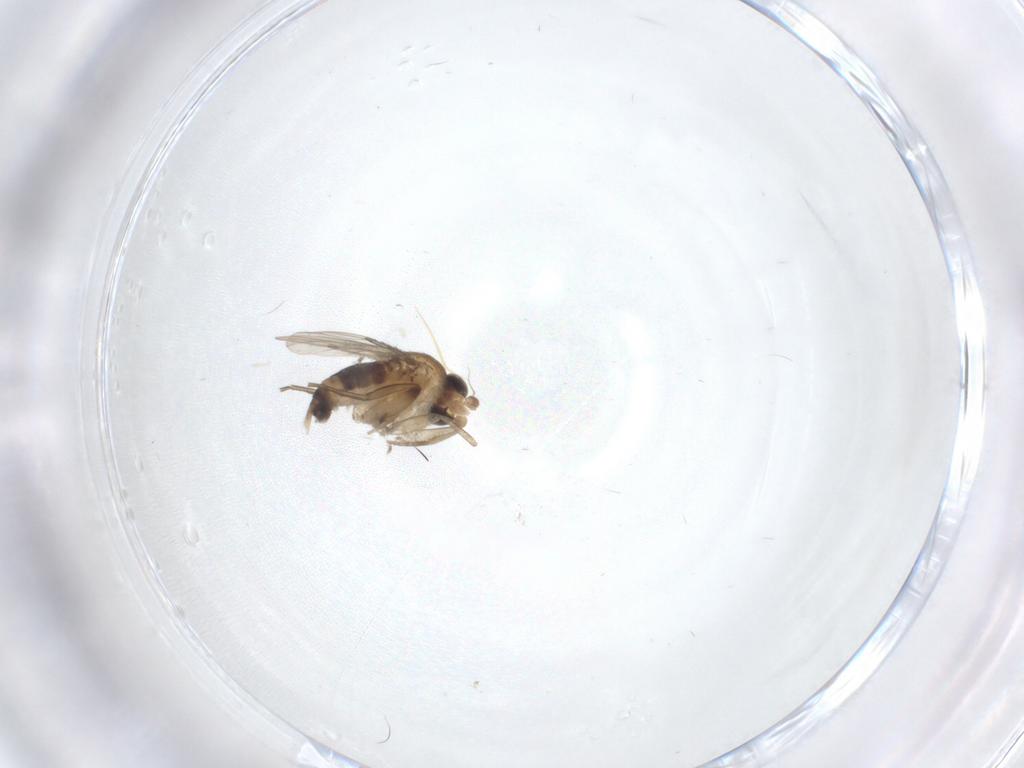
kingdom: Animalia
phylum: Arthropoda
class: Insecta
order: Diptera
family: Phoridae
